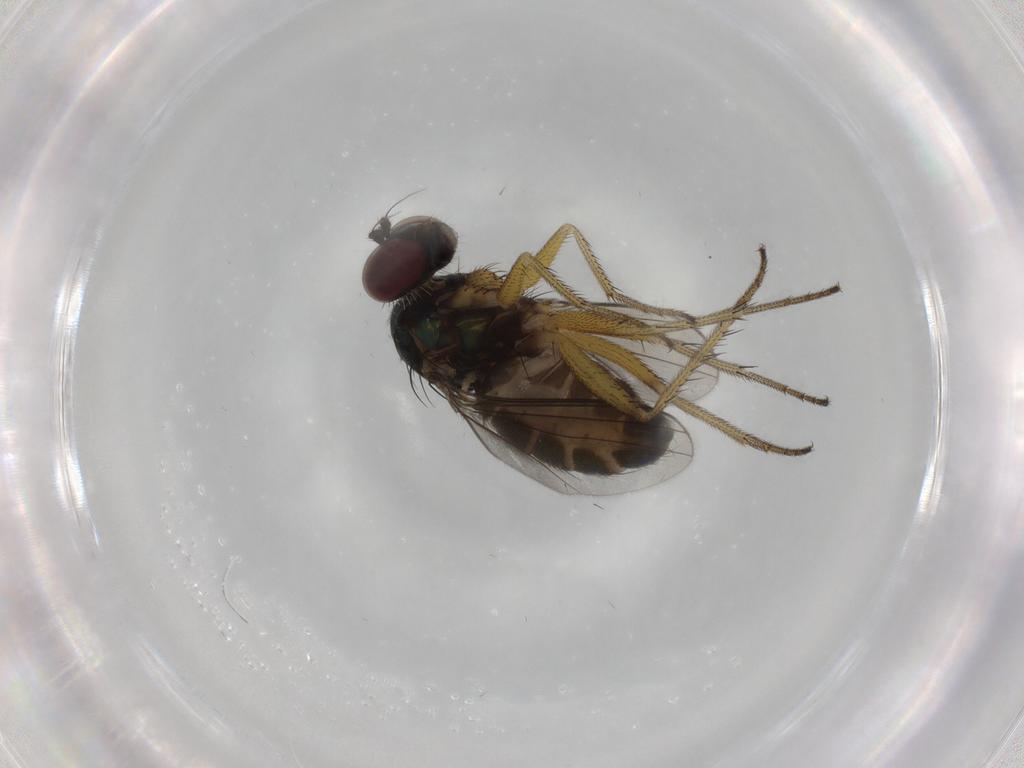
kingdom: Animalia
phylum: Arthropoda
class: Insecta
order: Diptera
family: Dolichopodidae
